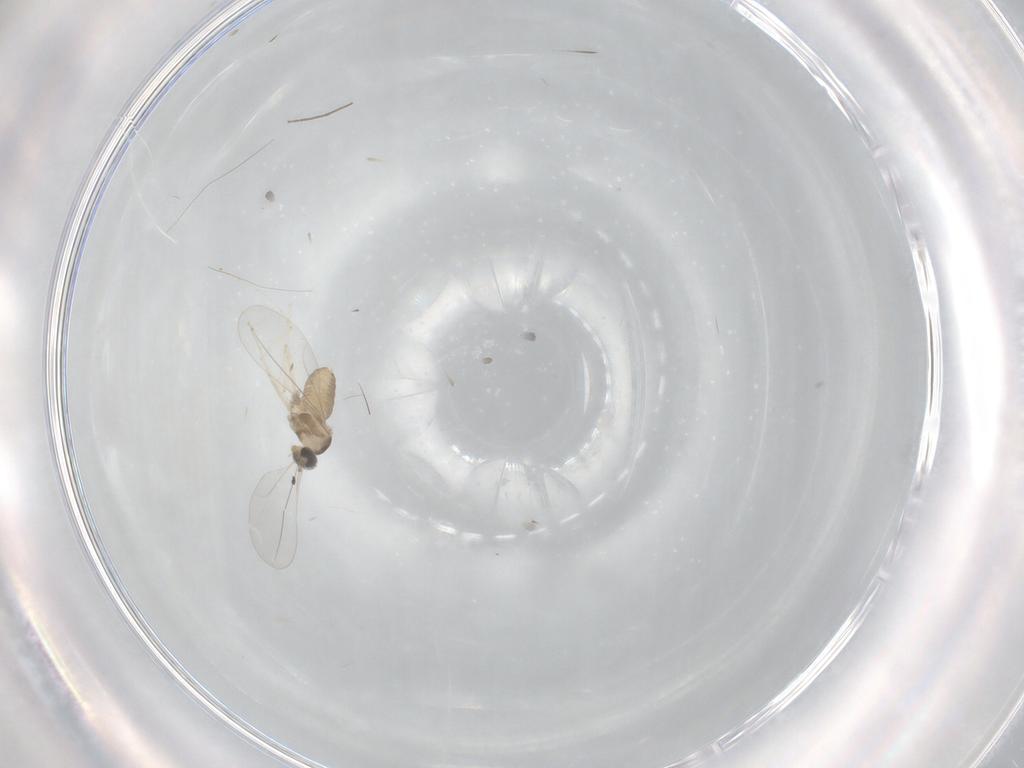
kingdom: Animalia
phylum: Arthropoda
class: Insecta
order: Diptera
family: Cecidomyiidae
